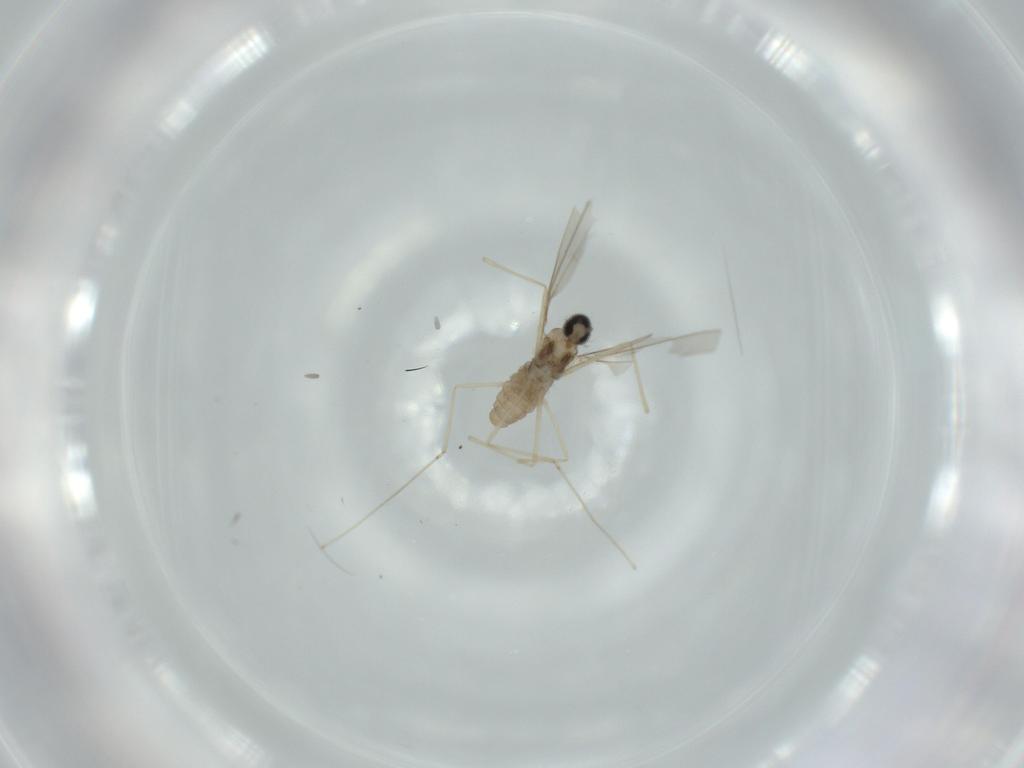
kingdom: Animalia
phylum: Arthropoda
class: Insecta
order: Diptera
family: Cecidomyiidae
